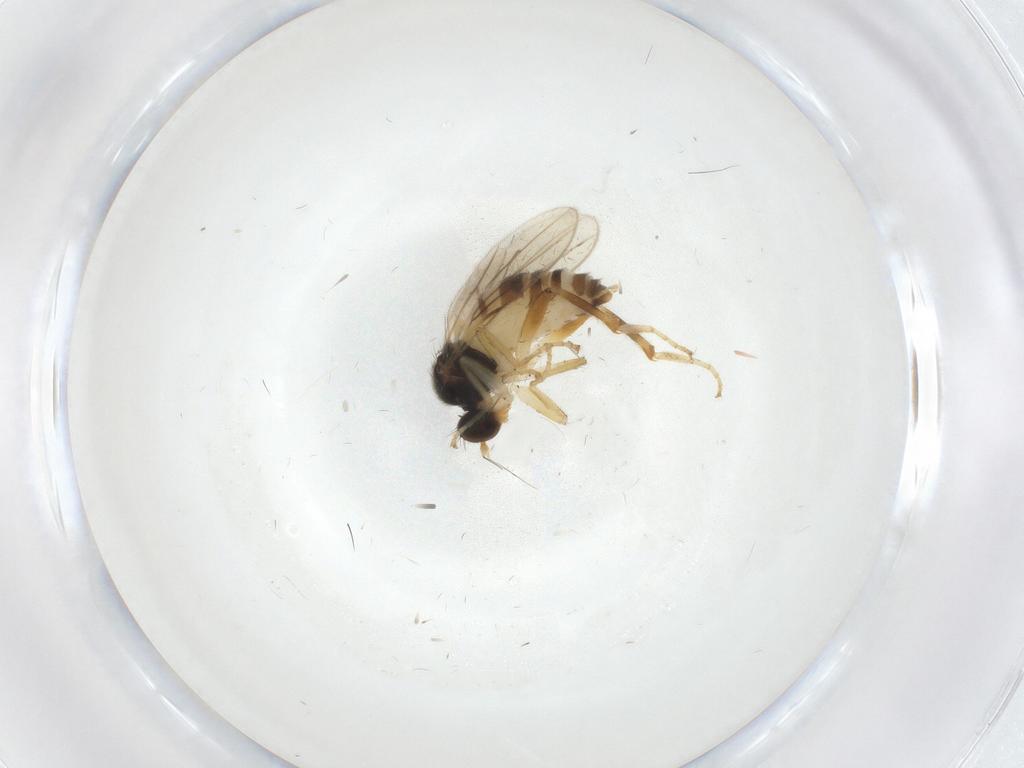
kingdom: Animalia
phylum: Arthropoda
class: Insecta
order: Diptera
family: Hybotidae
